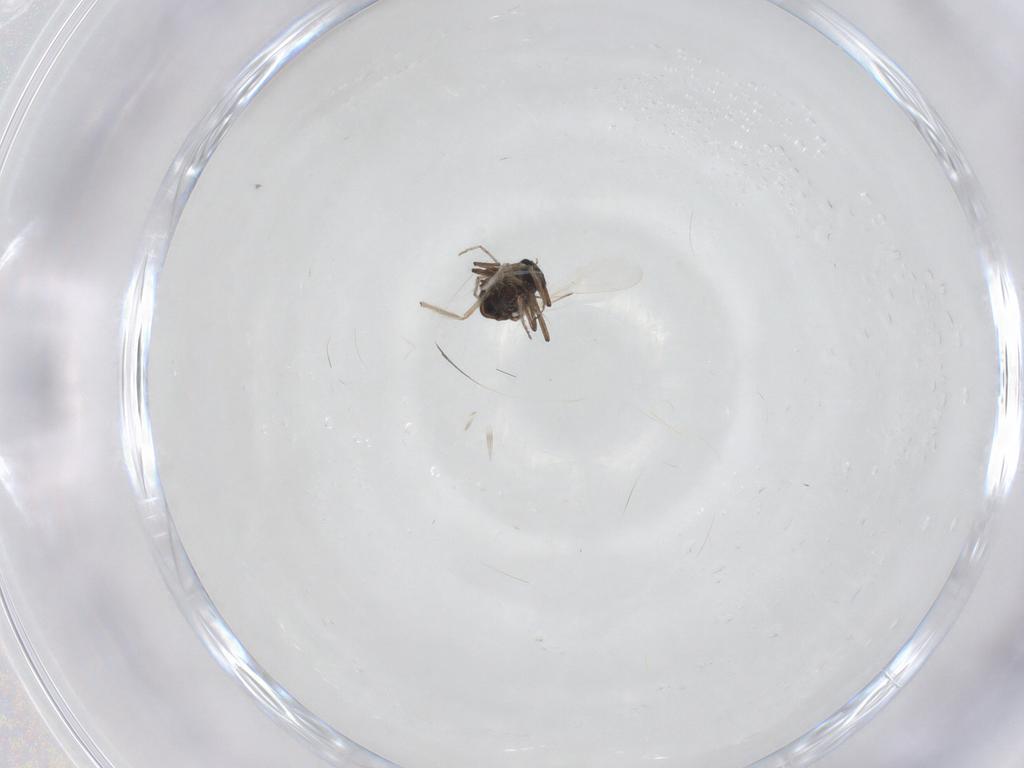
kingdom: Animalia
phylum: Arthropoda
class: Insecta
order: Diptera
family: Ceratopogonidae
